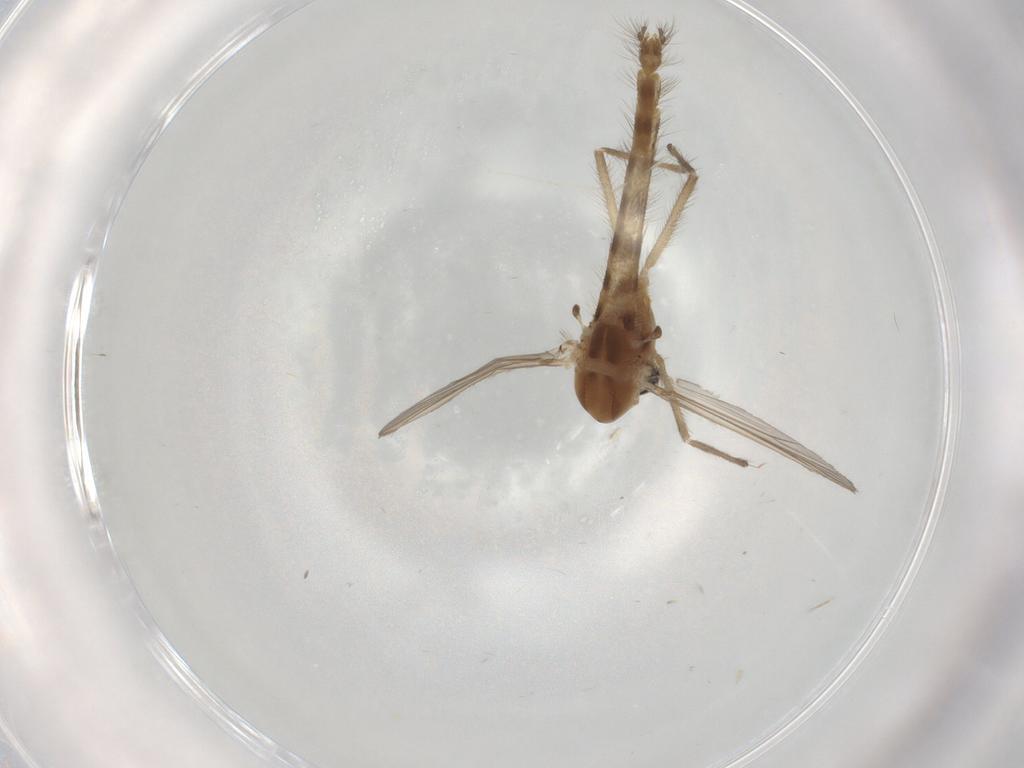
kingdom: Animalia
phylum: Arthropoda
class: Insecta
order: Diptera
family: Chironomidae
